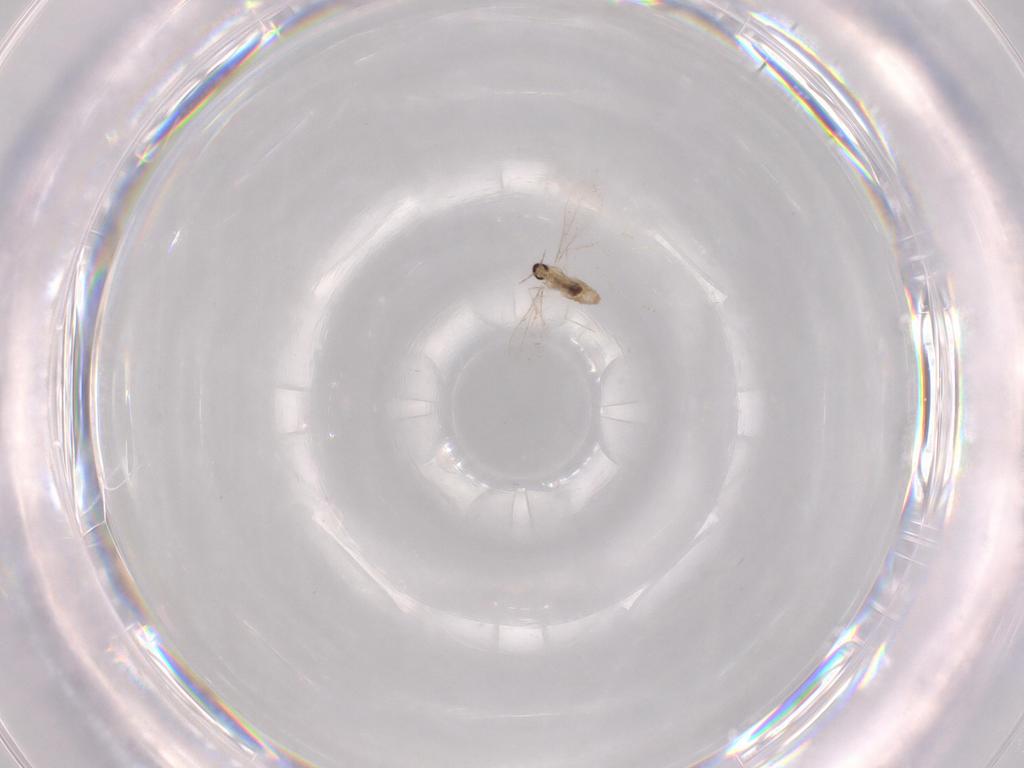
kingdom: Animalia
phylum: Arthropoda
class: Insecta
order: Diptera
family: Cecidomyiidae
